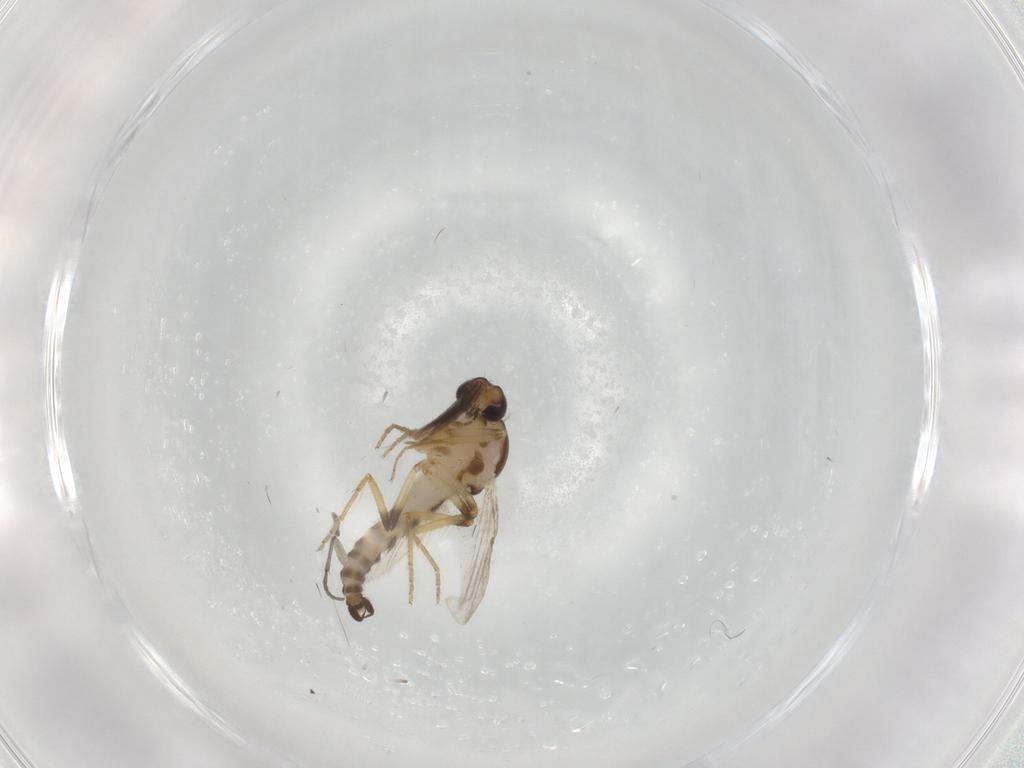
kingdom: Animalia
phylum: Arthropoda
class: Insecta
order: Diptera
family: Ceratopogonidae
